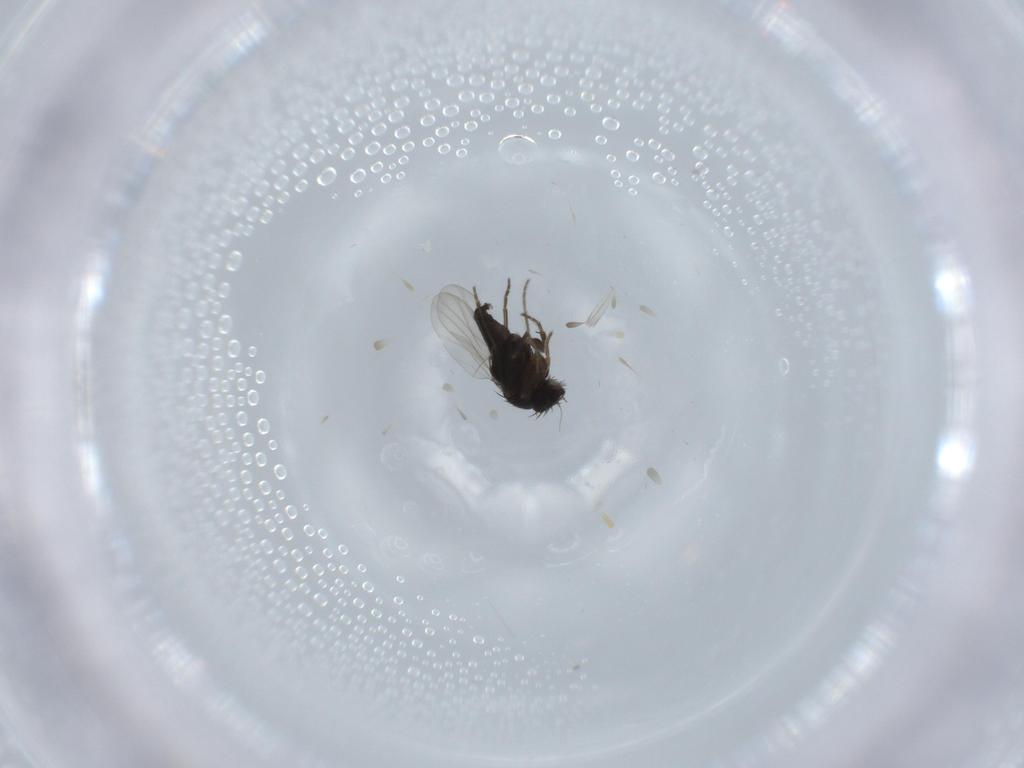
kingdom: Animalia
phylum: Arthropoda
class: Insecta
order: Diptera
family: Phoridae
